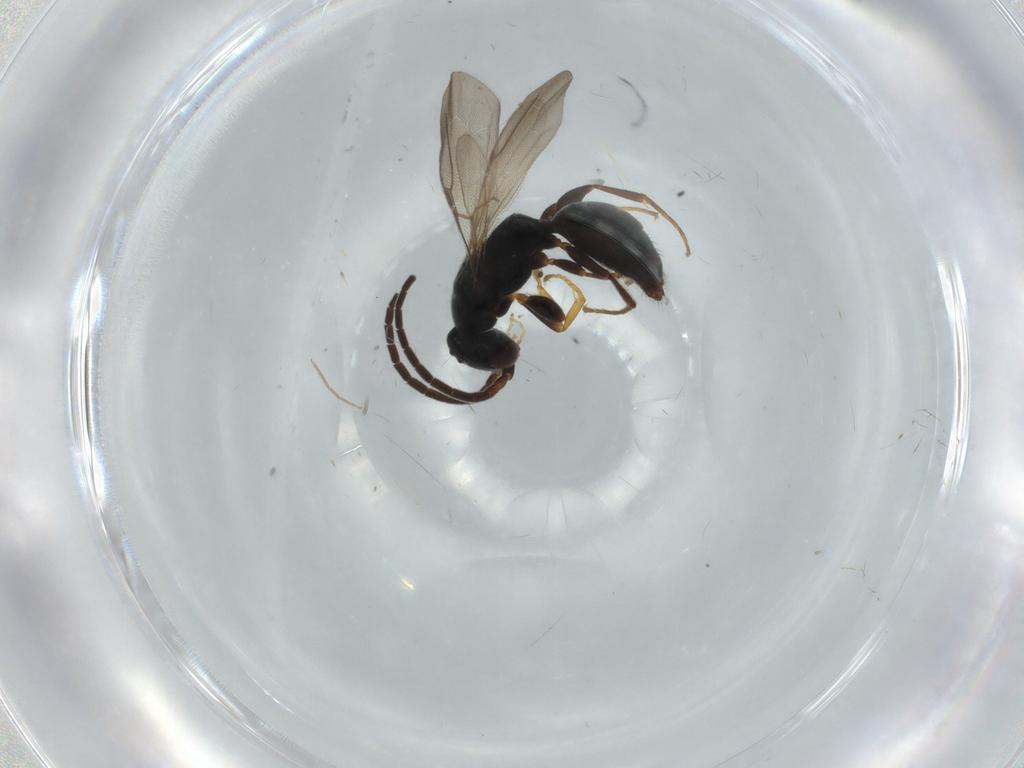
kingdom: Animalia
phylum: Arthropoda
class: Insecta
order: Hymenoptera
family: Bethylidae
